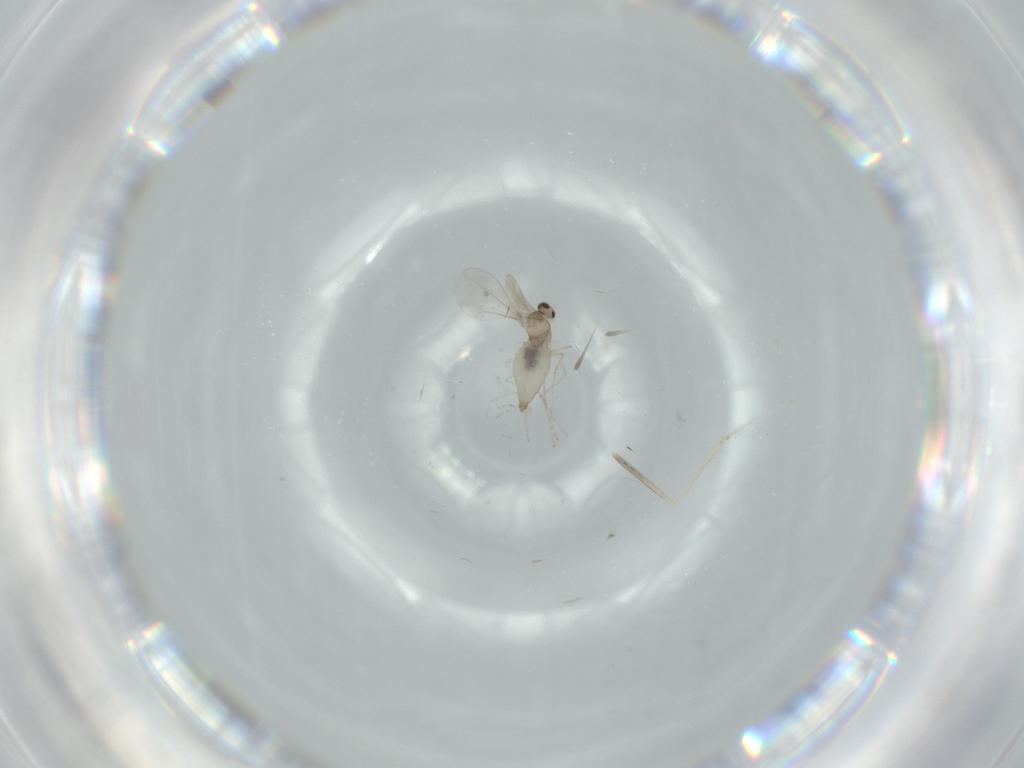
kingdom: Animalia
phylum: Arthropoda
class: Insecta
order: Diptera
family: Cecidomyiidae
